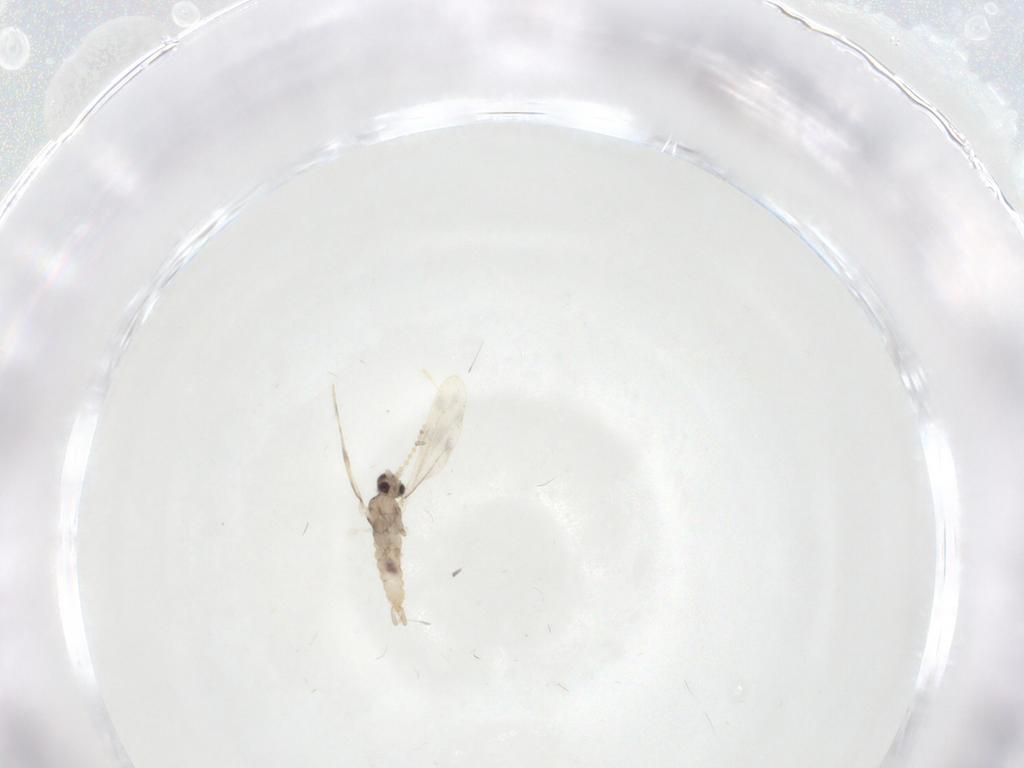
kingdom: Animalia
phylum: Arthropoda
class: Insecta
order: Diptera
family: Cecidomyiidae
